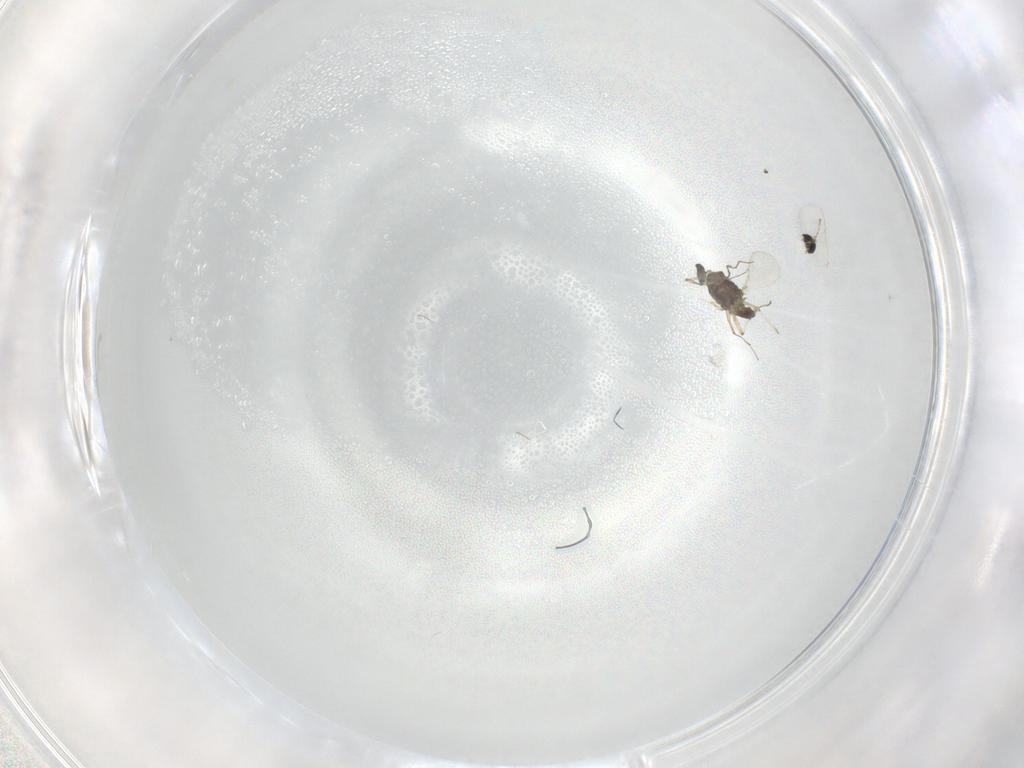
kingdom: Animalia
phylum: Arthropoda
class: Insecta
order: Diptera
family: Chironomidae
